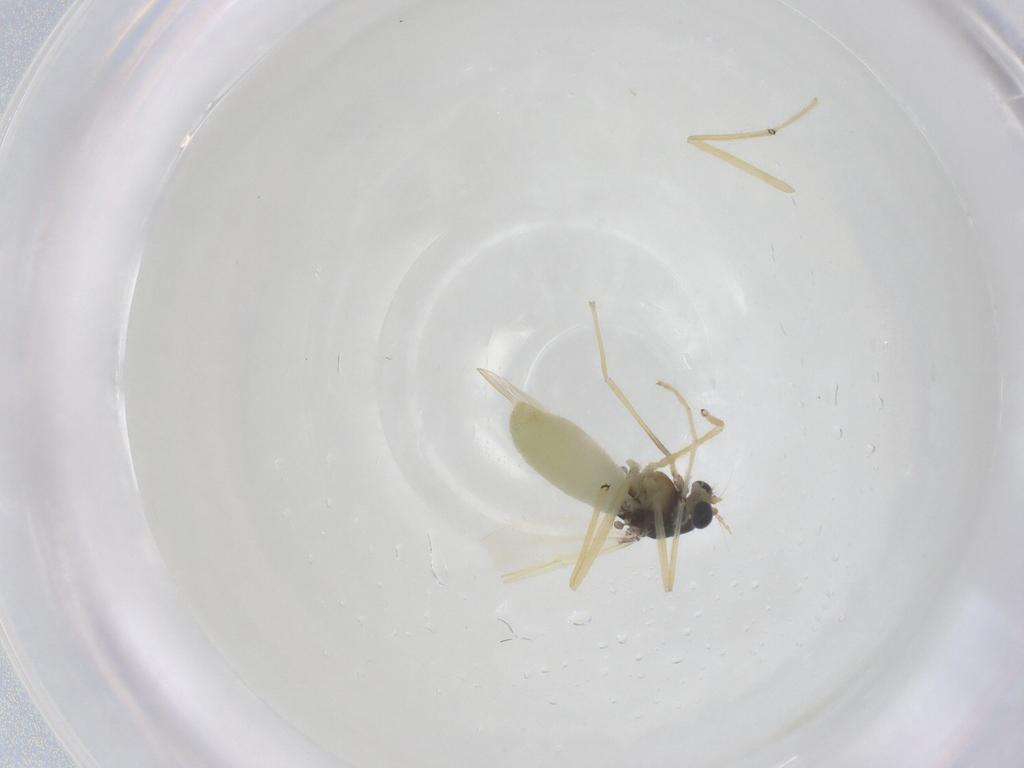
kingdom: Animalia
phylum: Arthropoda
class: Insecta
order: Diptera
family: Chironomidae
